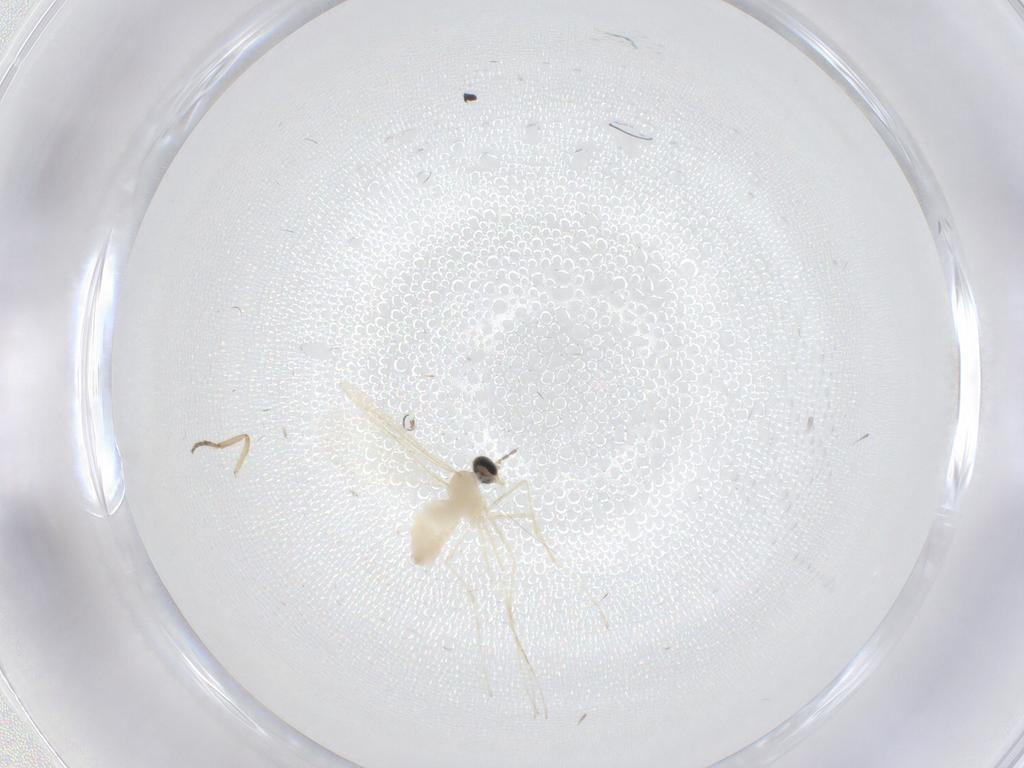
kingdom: Animalia
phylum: Arthropoda
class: Insecta
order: Diptera
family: Cecidomyiidae
